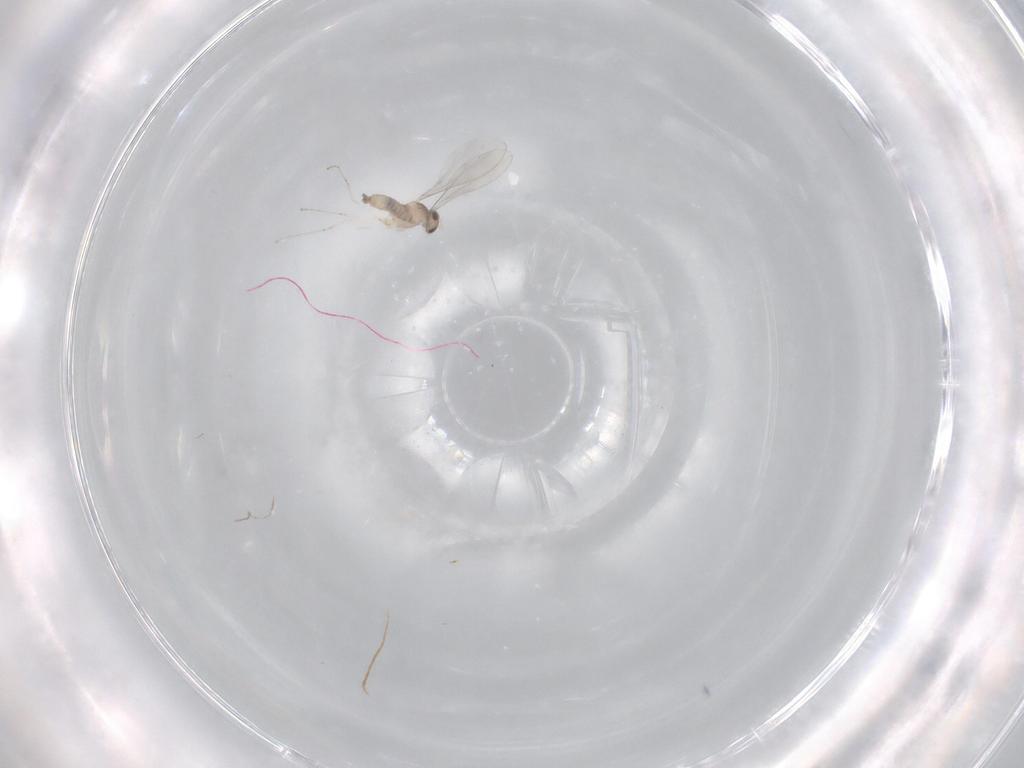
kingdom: Animalia
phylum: Arthropoda
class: Insecta
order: Diptera
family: Cecidomyiidae
